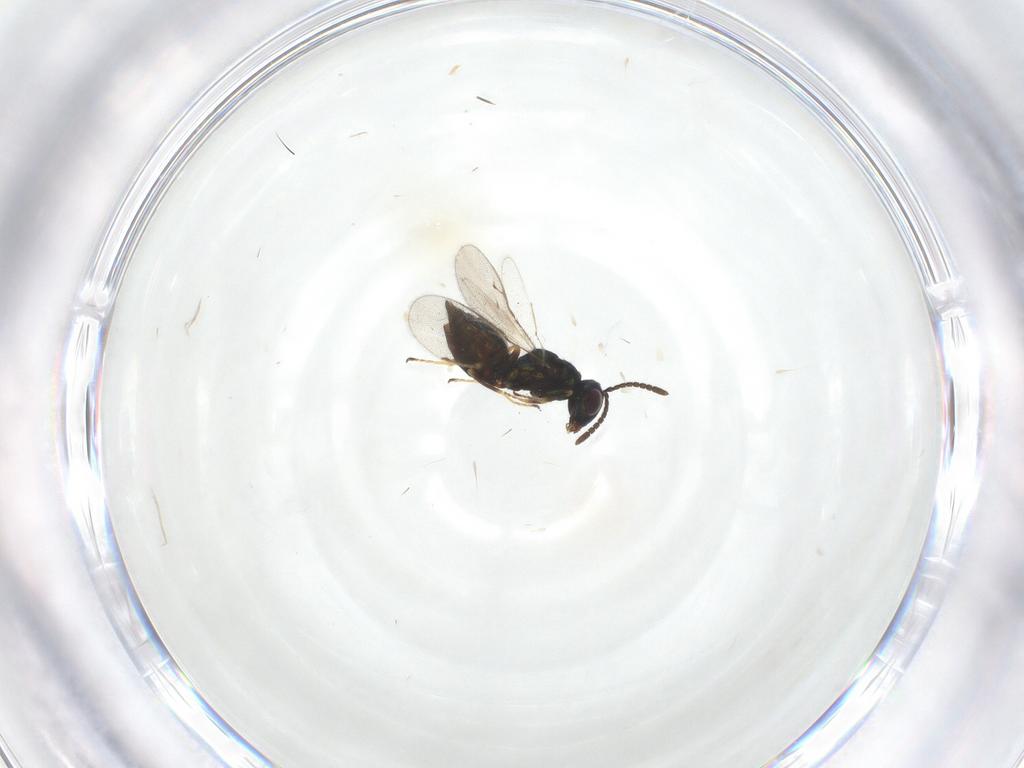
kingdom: Animalia
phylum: Arthropoda
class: Insecta
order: Hymenoptera
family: Pteromalidae
